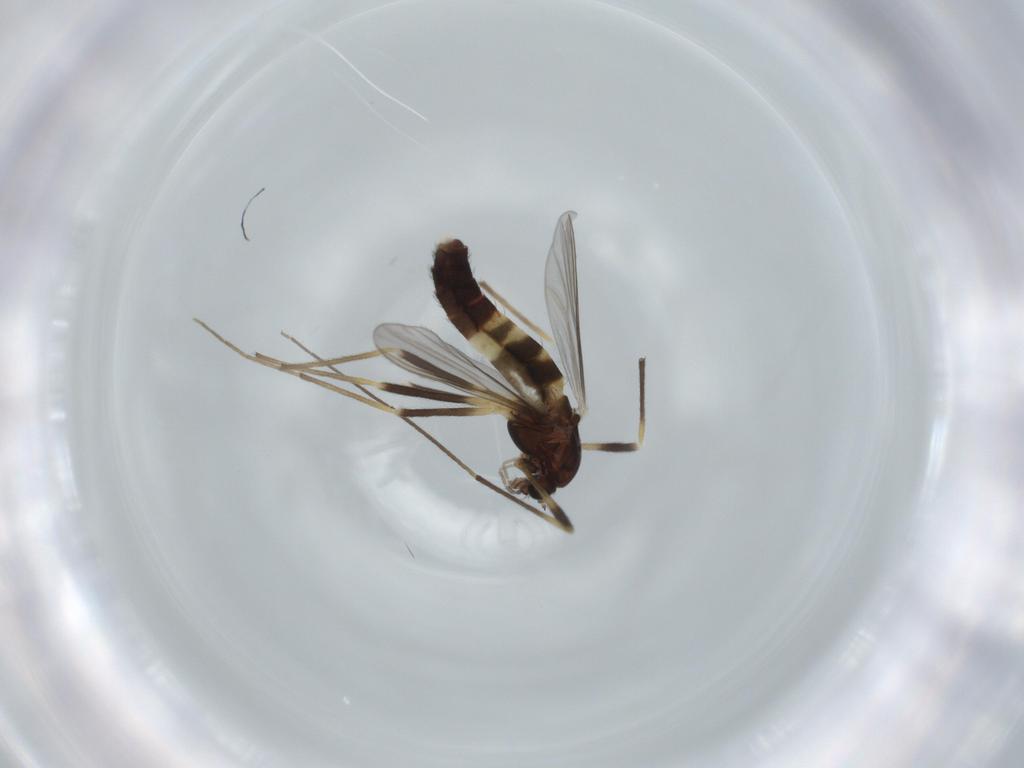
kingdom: Animalia
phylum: Arthropoda
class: Insecta
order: Diptera
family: Chironomidae
